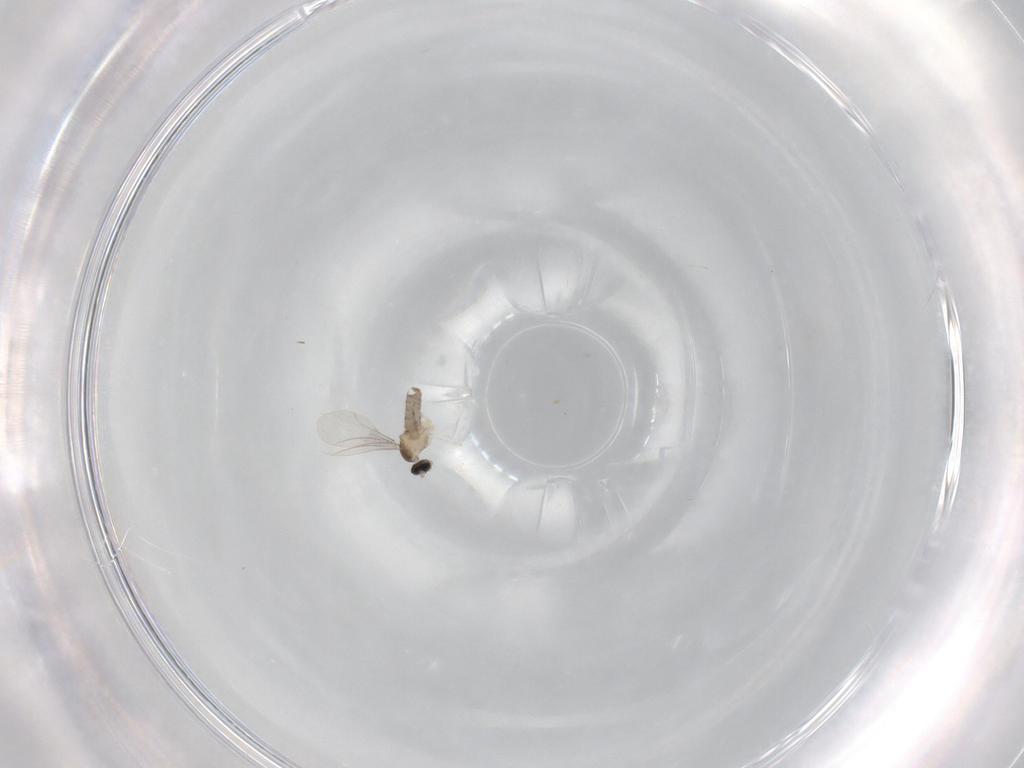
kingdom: Animalia
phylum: Arthropoda
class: Insecta
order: Diptera
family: Cecidomyiidae
